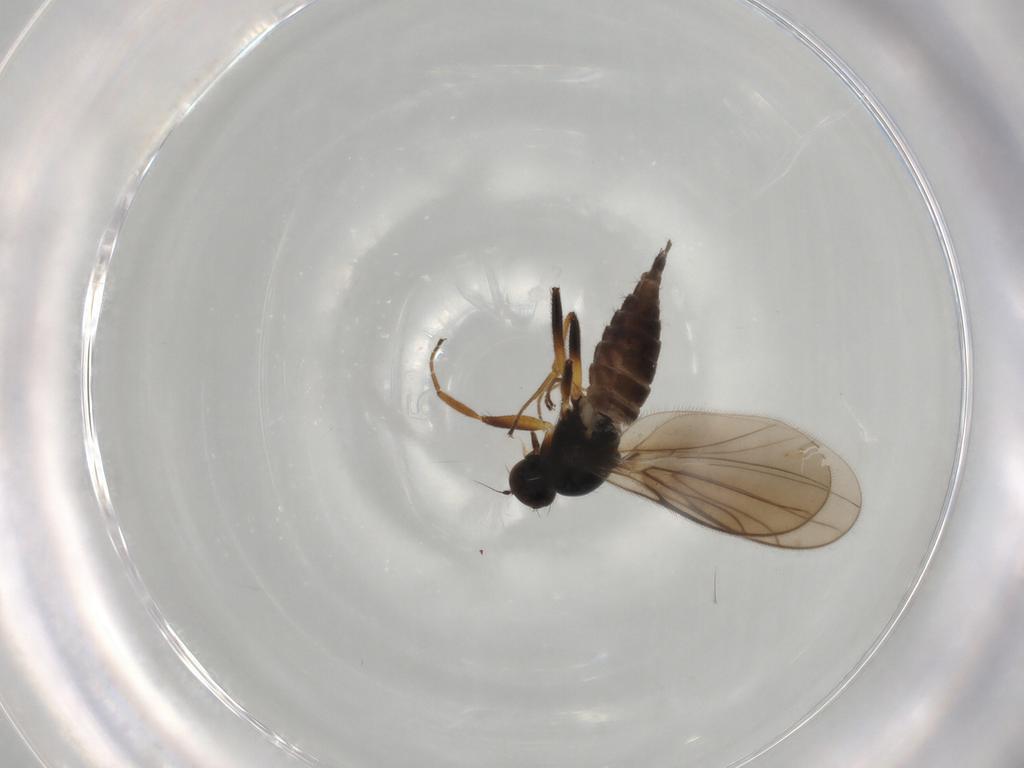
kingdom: Animalia
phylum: Arthropoda
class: Insecta
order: Diptera
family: Hybotidae
